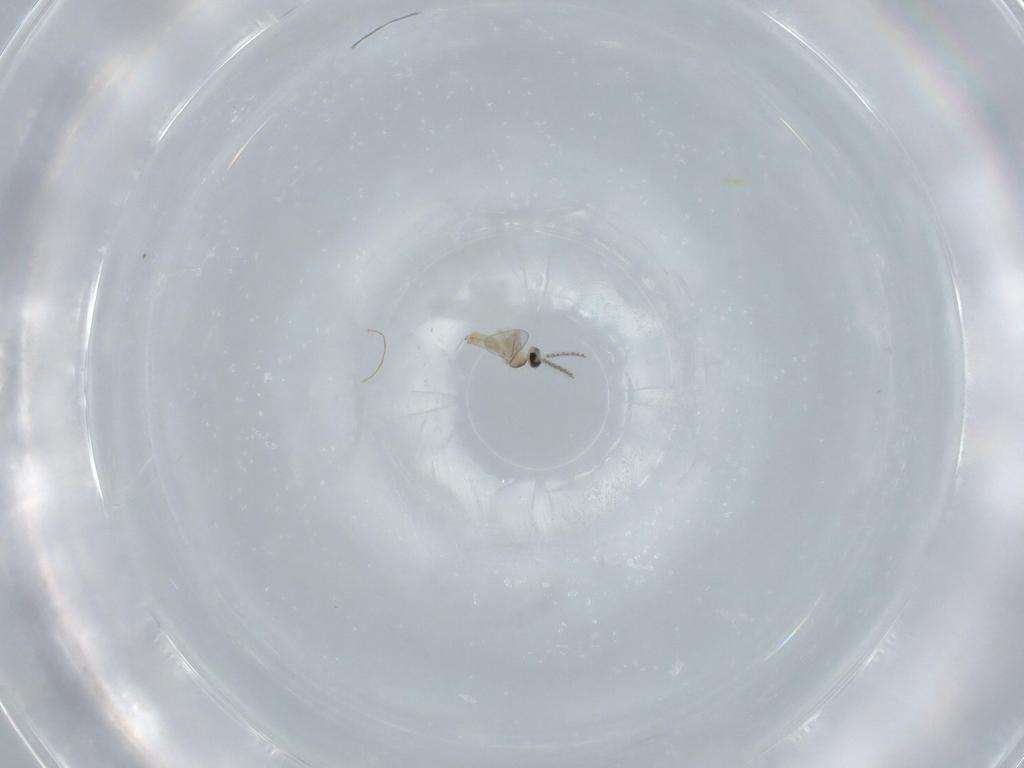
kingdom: Animalia
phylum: Arthropoda
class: Insecta
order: Diptera
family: Cecidomyiidae
